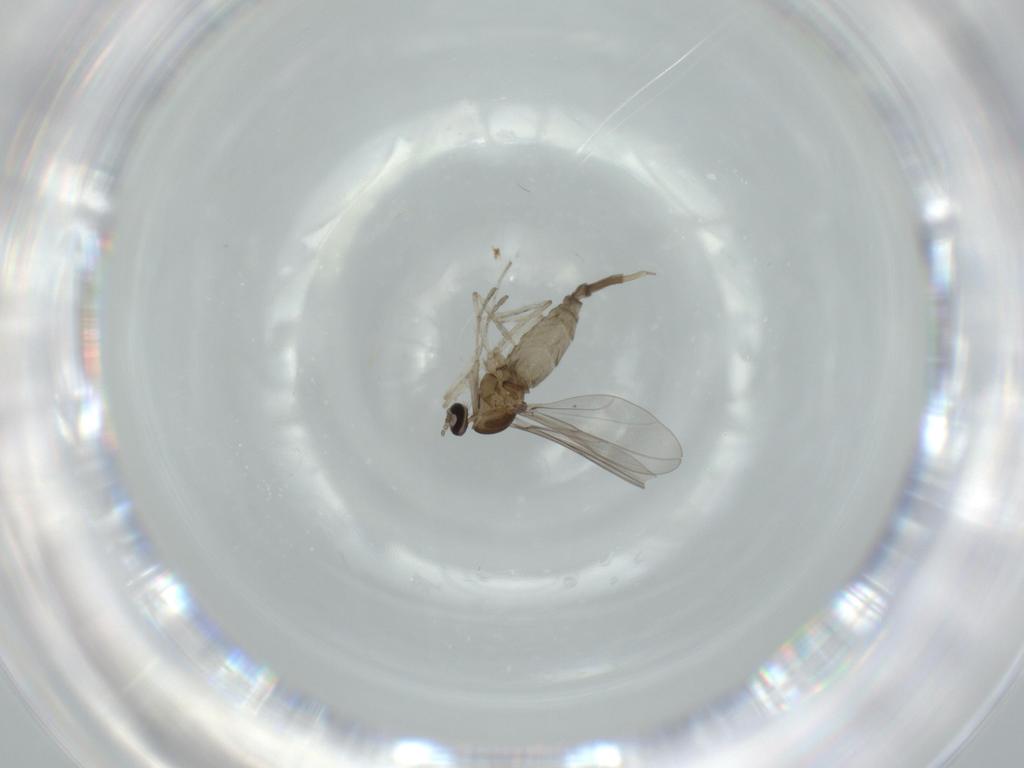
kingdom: Animalia
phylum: Arthropoda
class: Insecta
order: Diptera
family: Cecidomyiidae
